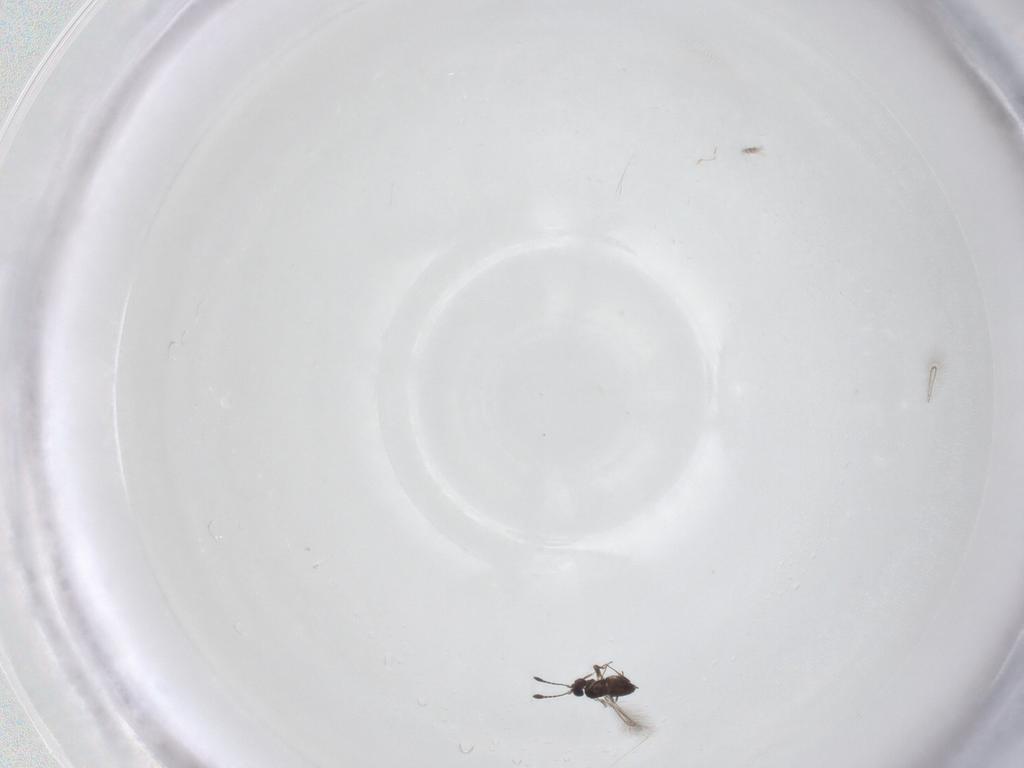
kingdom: Animalia
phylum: Arthropoda
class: Insecta
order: Hymenoptera
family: Mymaridae
